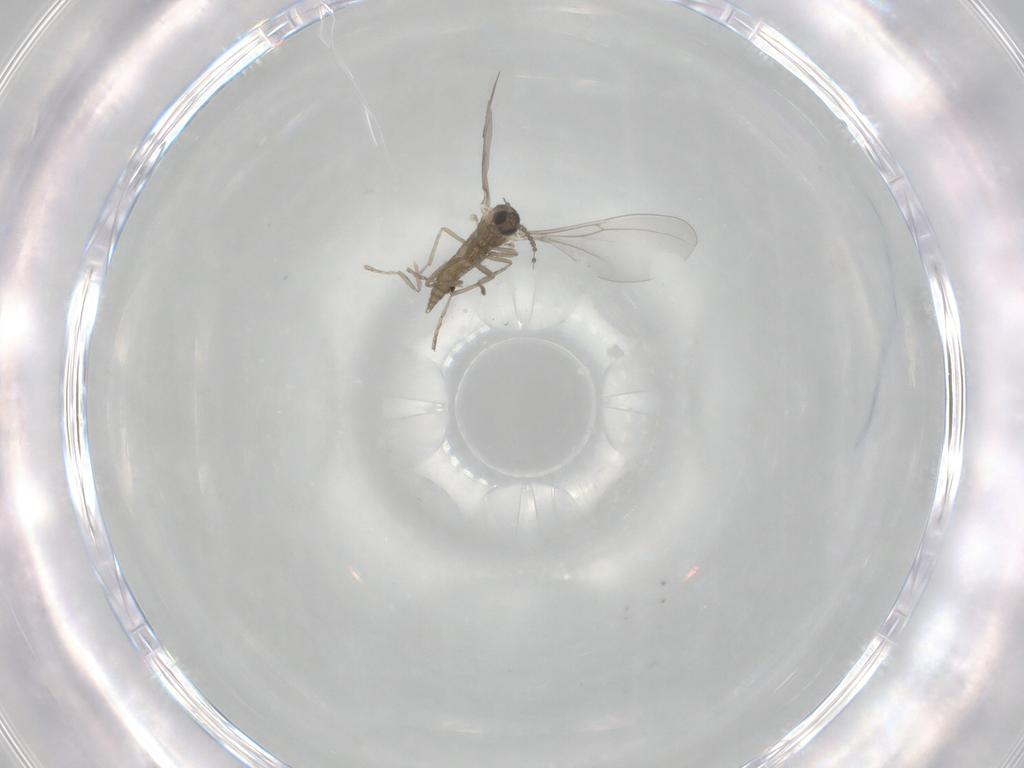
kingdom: Animalia
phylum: Arthropoda
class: Insecta
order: Diptera
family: Cecidomyiidae
